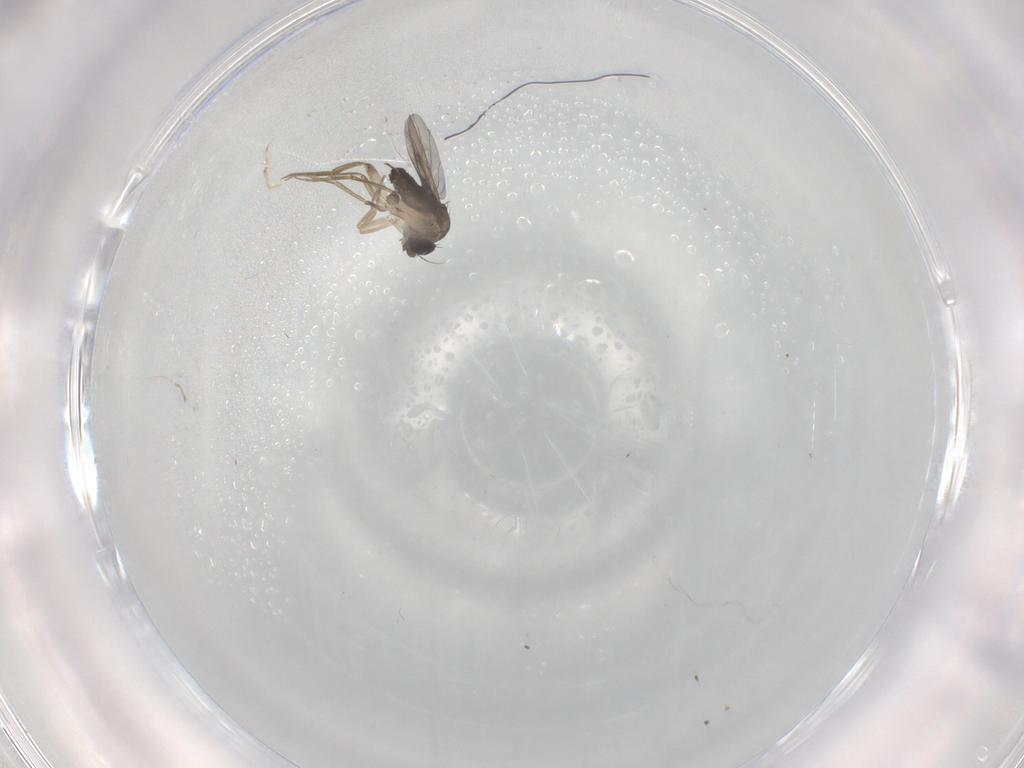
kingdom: Animalia
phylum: Arthropoda
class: Insecta
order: Diptera
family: Phoridae
